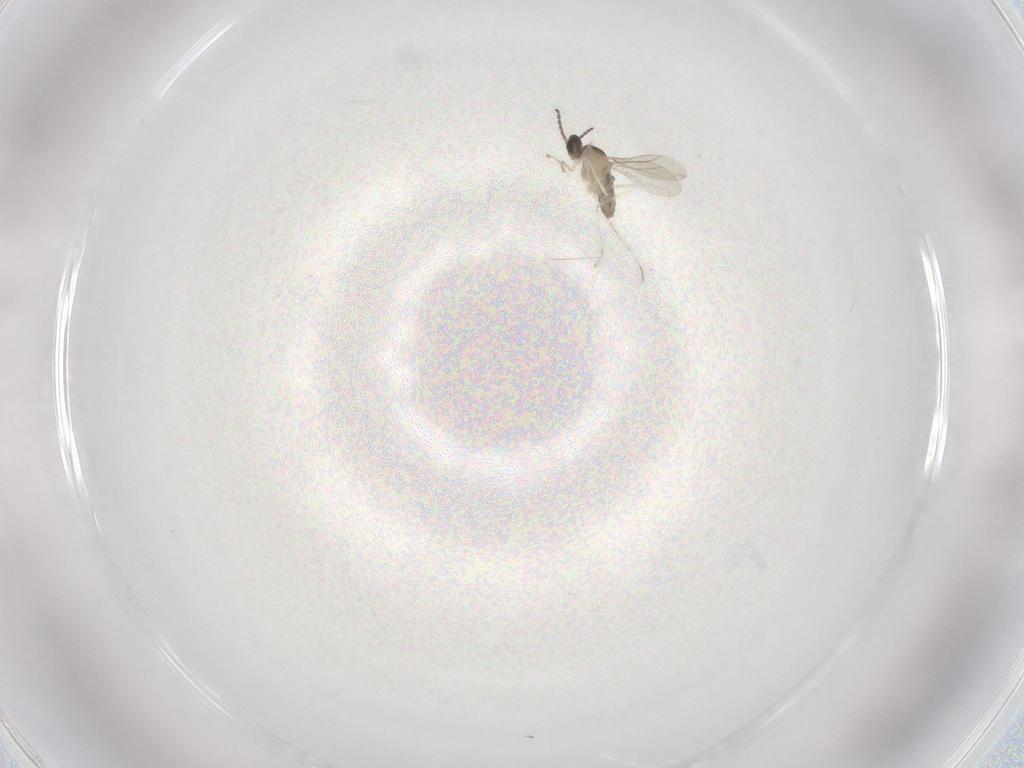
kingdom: Animalia
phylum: Arthropoda
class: Insecta
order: Diptera
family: Cecidomyiidae
